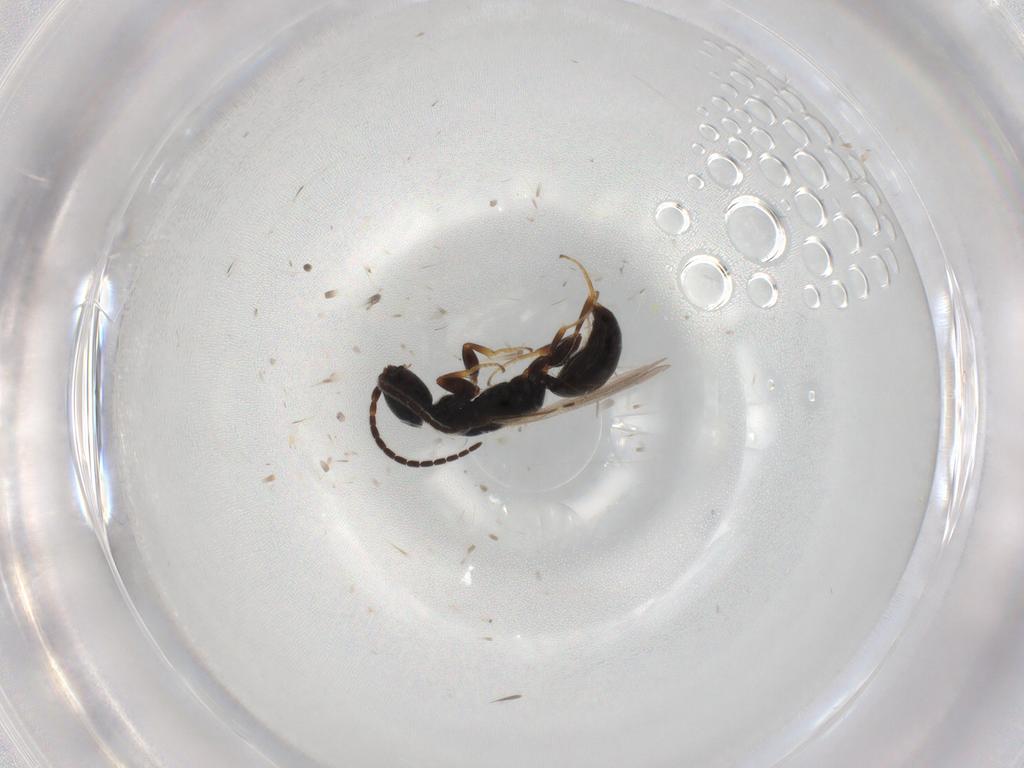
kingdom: Animalia
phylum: Arthropoda
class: Insecta
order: Hymenoptera
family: Bethylidae
